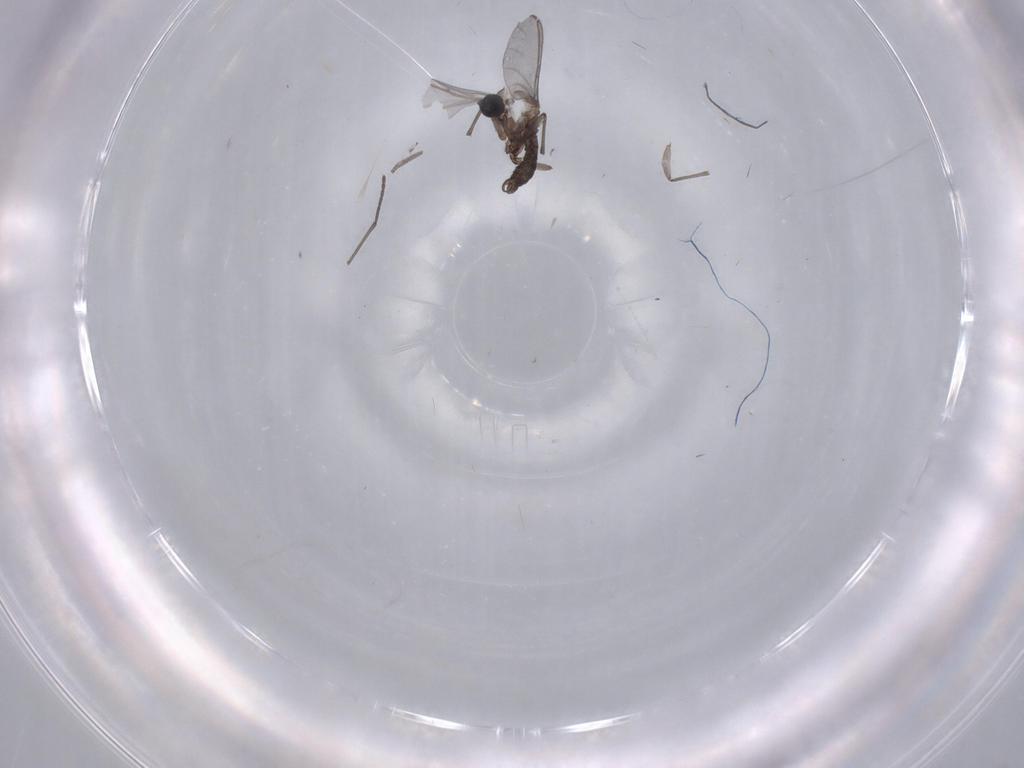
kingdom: Animalia
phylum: Arthropoda
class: Insecta
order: Diptera
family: Sciaridae
